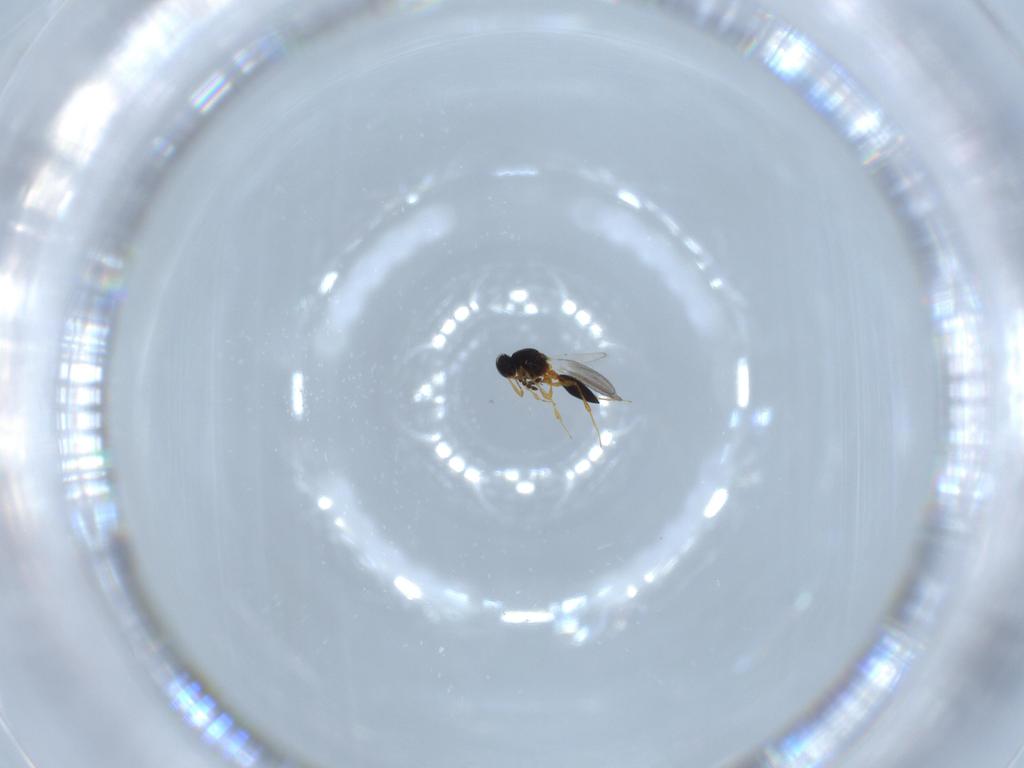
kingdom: Animalia
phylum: Arthropoda
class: Insecta
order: Hymenoptera
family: Platygastridae
